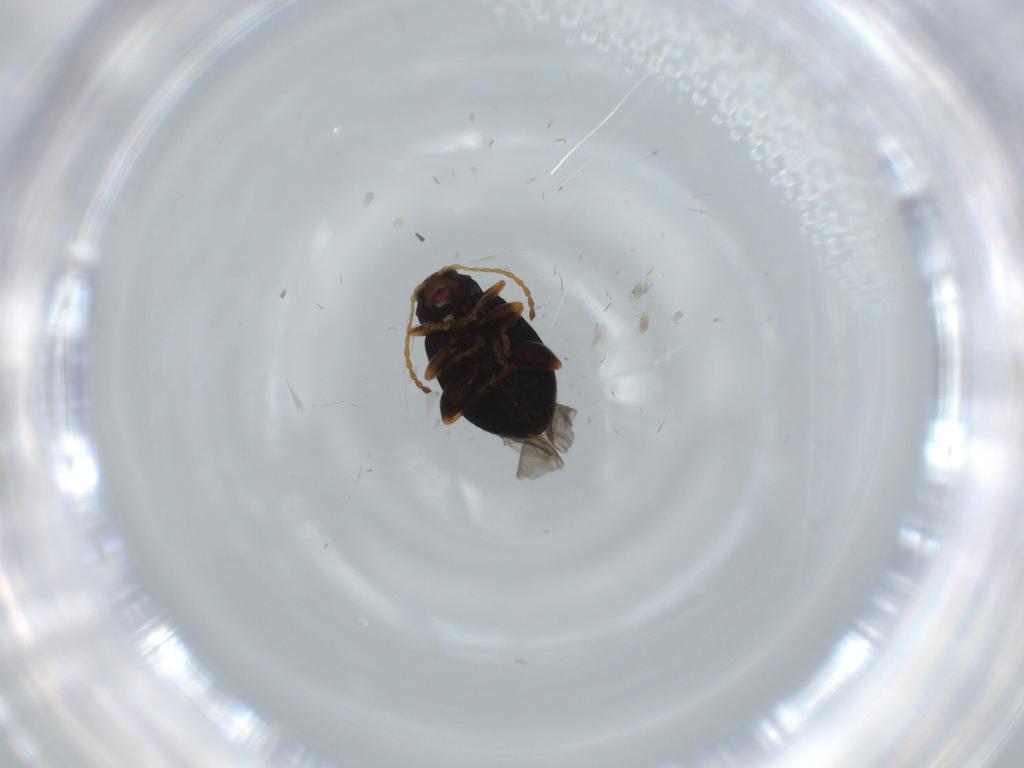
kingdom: Animalia
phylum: Arthropoda
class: Insecta
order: Coleoptera
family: Chrysomelidae
